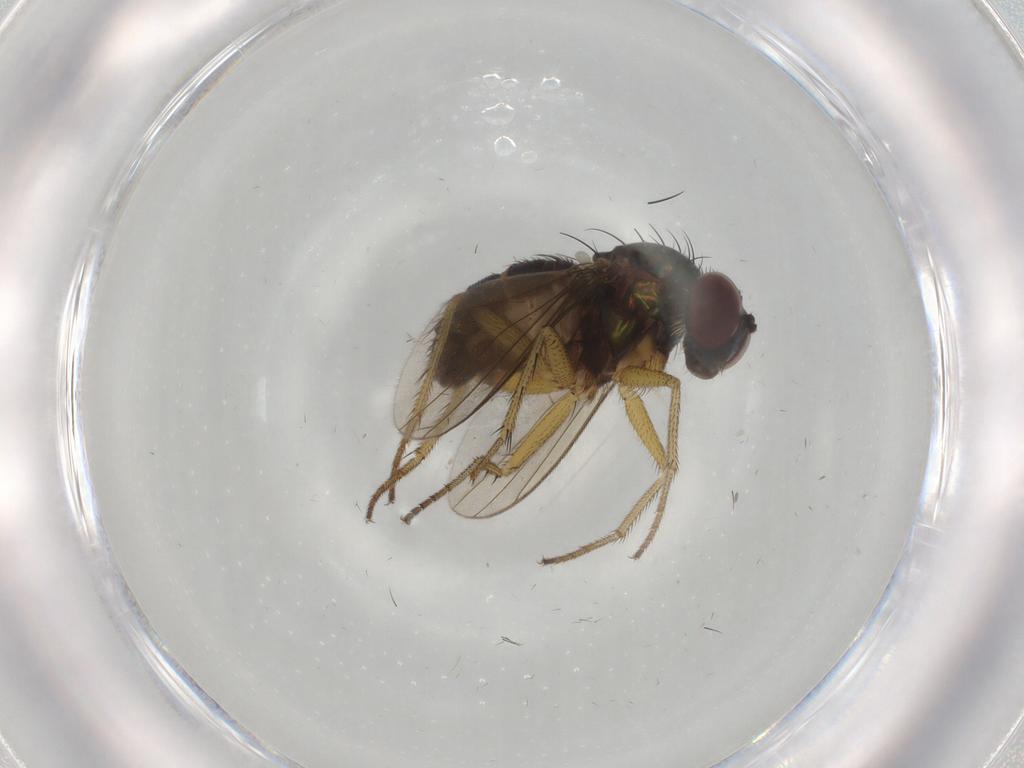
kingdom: Animalia
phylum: Arthropoda
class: Insecta
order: Diptera
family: Dolichopodidae
